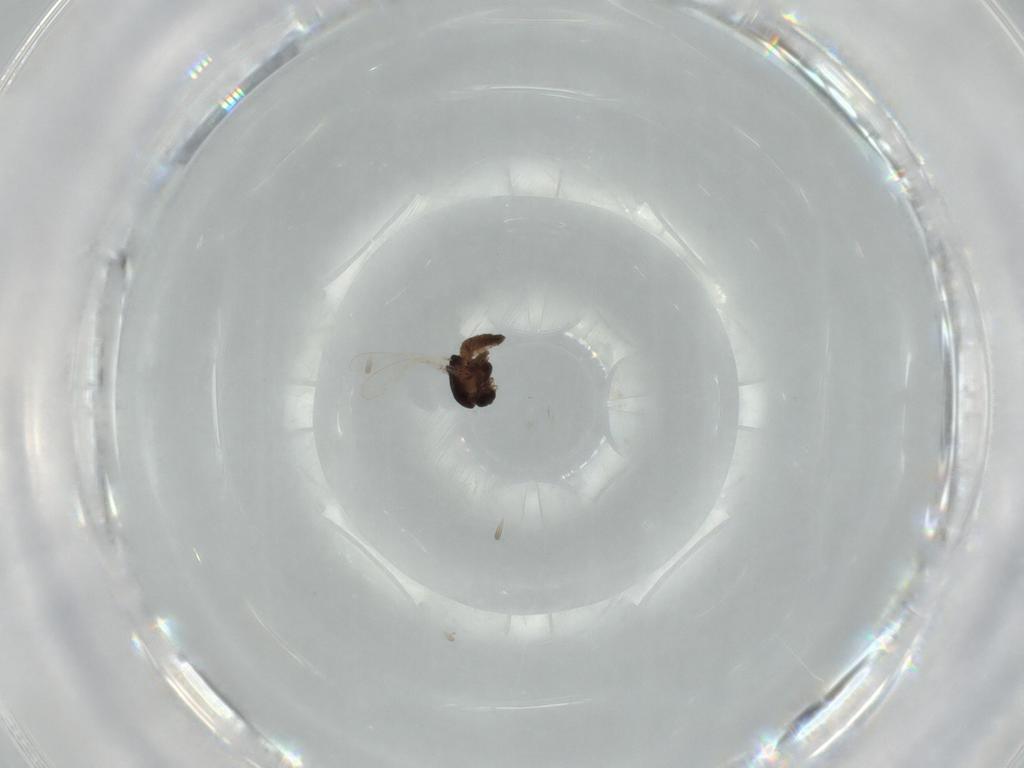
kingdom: Animalia
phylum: Arthropoda
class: Insecta
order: Diptera
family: Chironomidae
